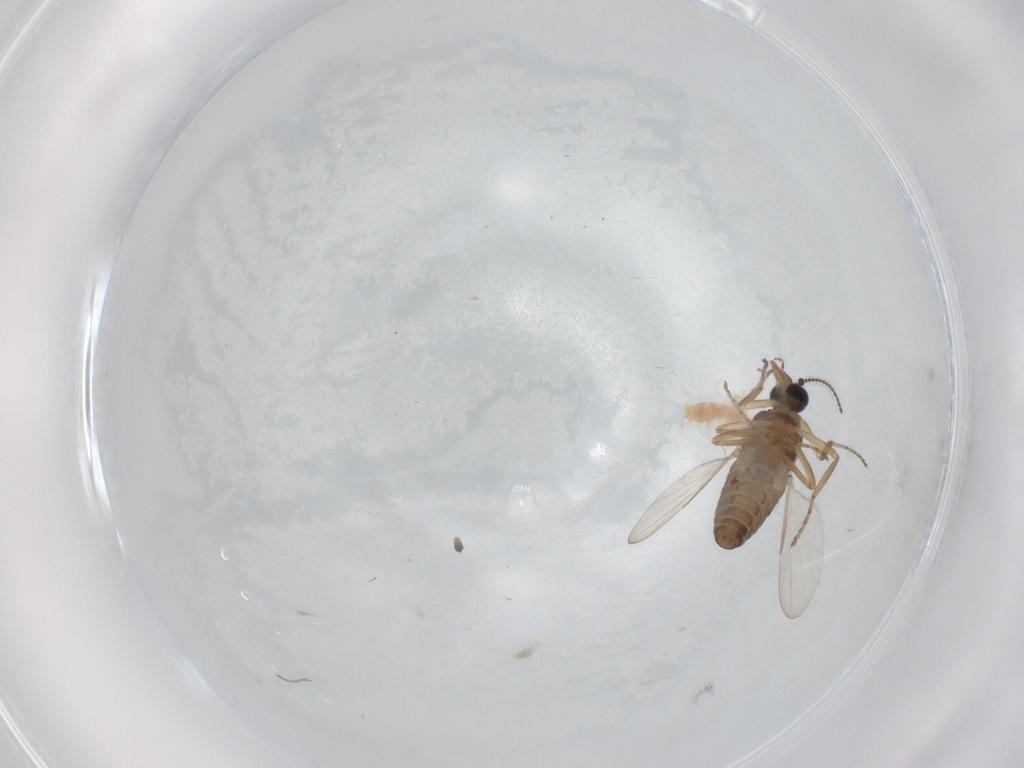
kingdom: Animalia
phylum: Arthropoda
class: Insecta
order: Diptera
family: Ceratopogonidae
